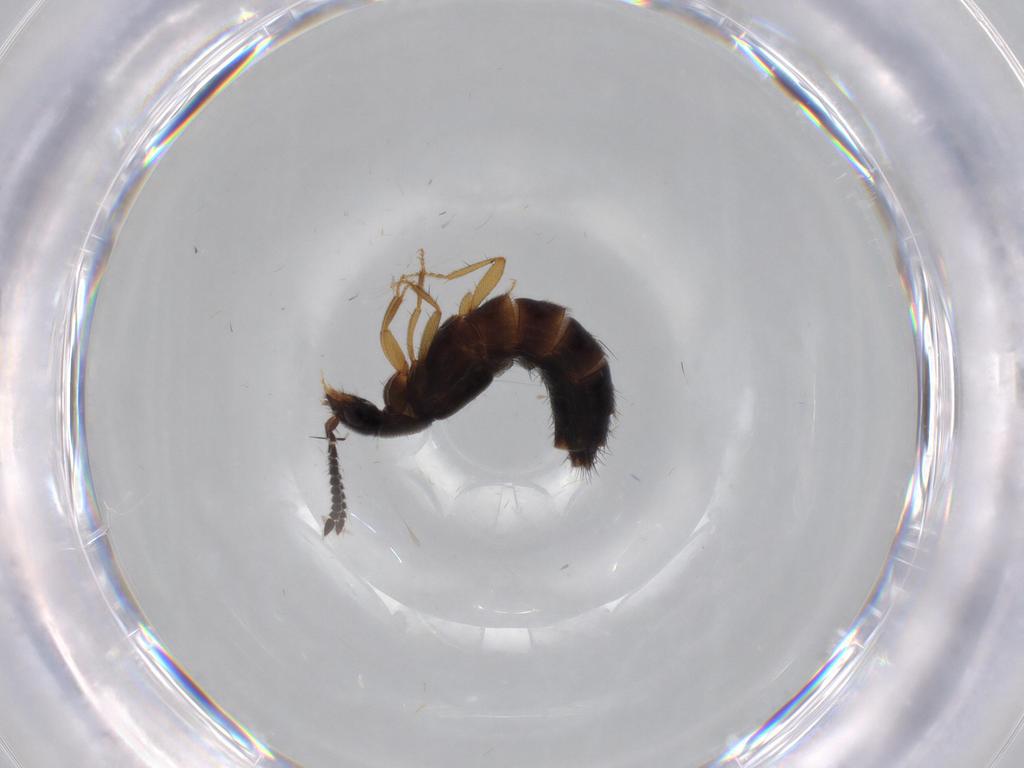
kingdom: Animalia
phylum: Arthropoda
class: Insecta
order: Coleoptera
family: Staphylinidae
